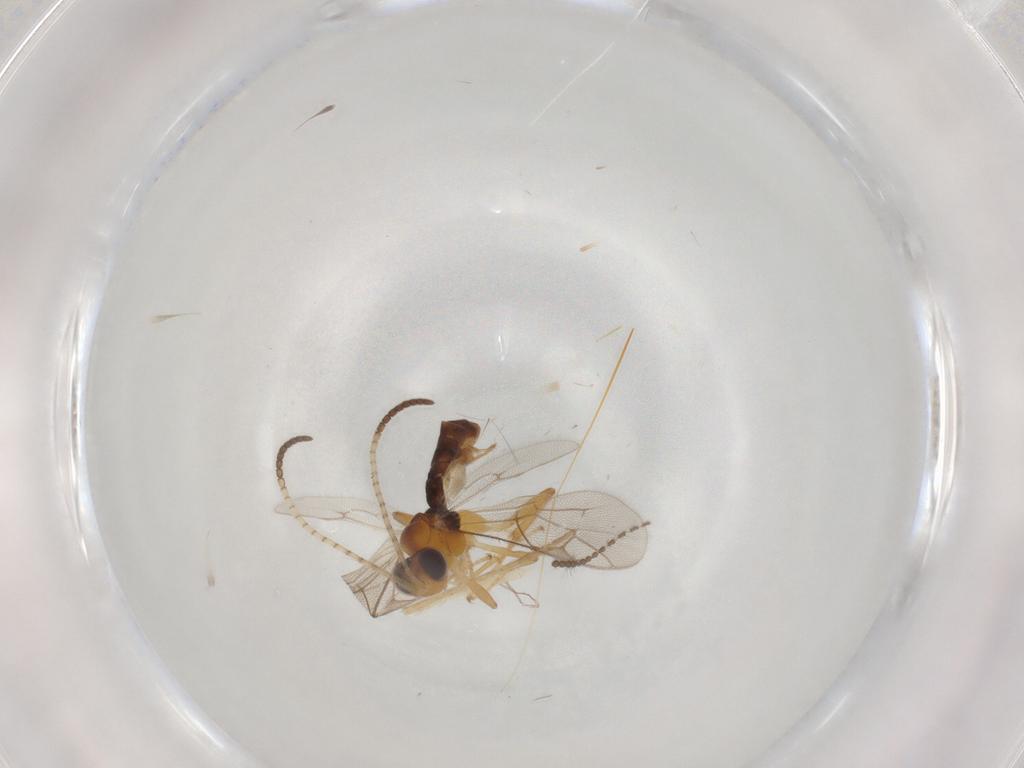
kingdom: Animalia
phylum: Arthropoda
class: Insecta
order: Hymenoptera
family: Ichneumonidae
